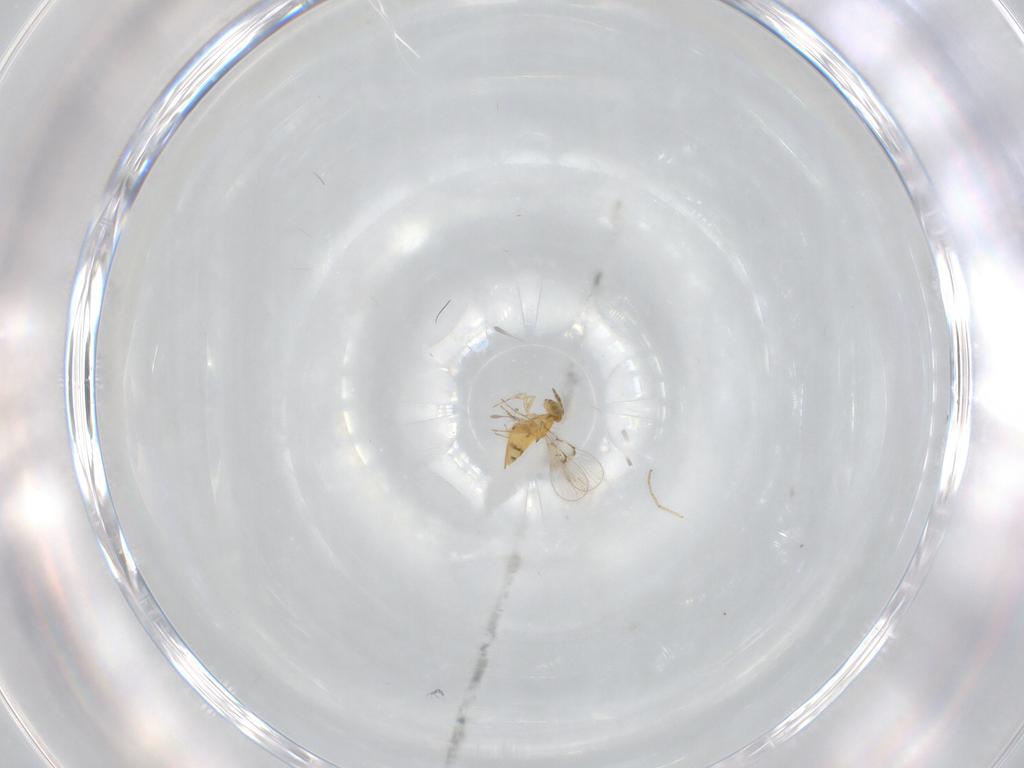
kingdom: Animalia
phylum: Arthropoda
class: Insecta
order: Hymenoptera
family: Trichogrammatidae
